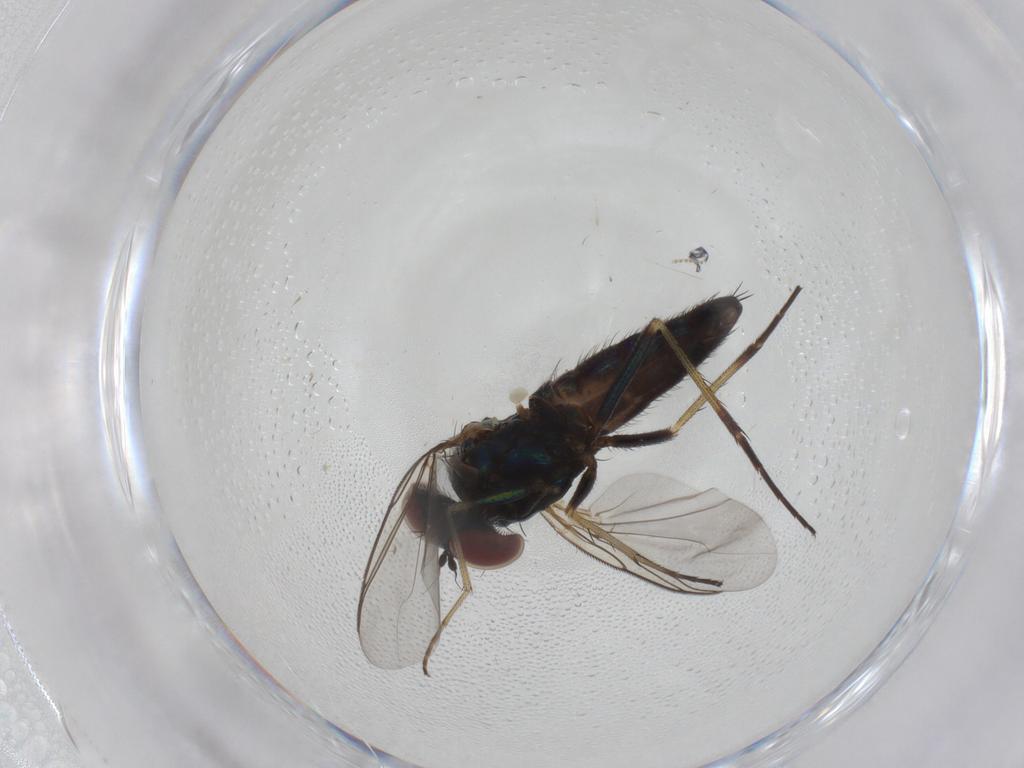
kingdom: Animalia
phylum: Arthropoda
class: Insecta
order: Diptera
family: Dolichopodidae
